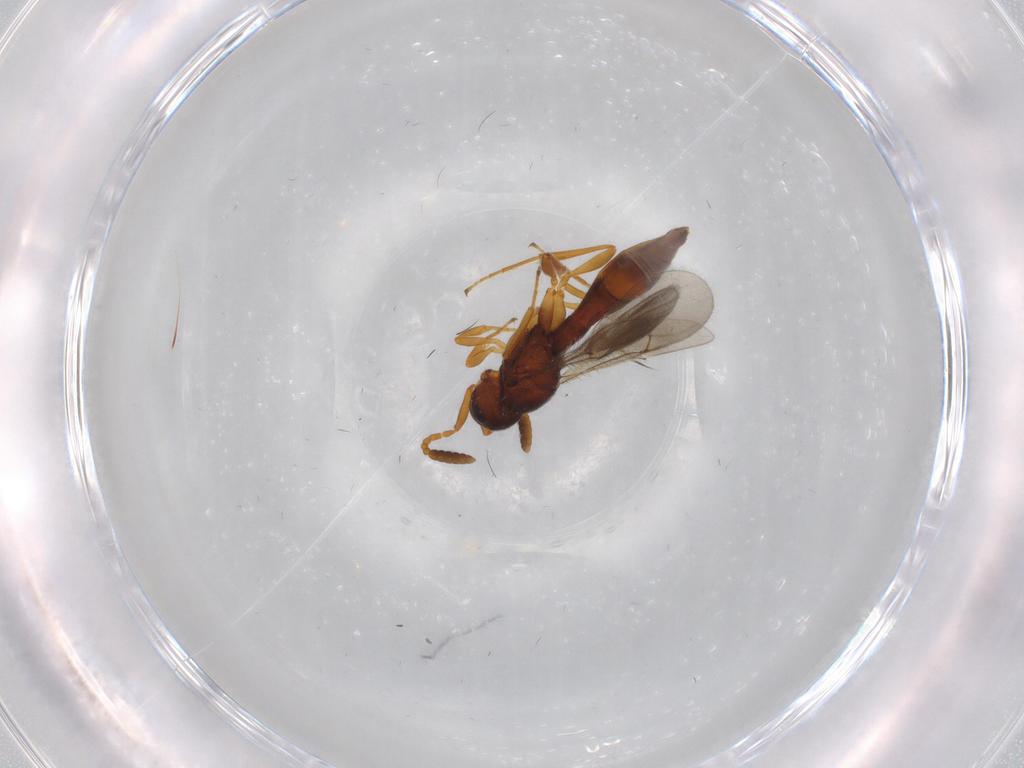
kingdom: Animalia
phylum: Arthropoda
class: Insecta
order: Hymenoptera
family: Scelionidae
